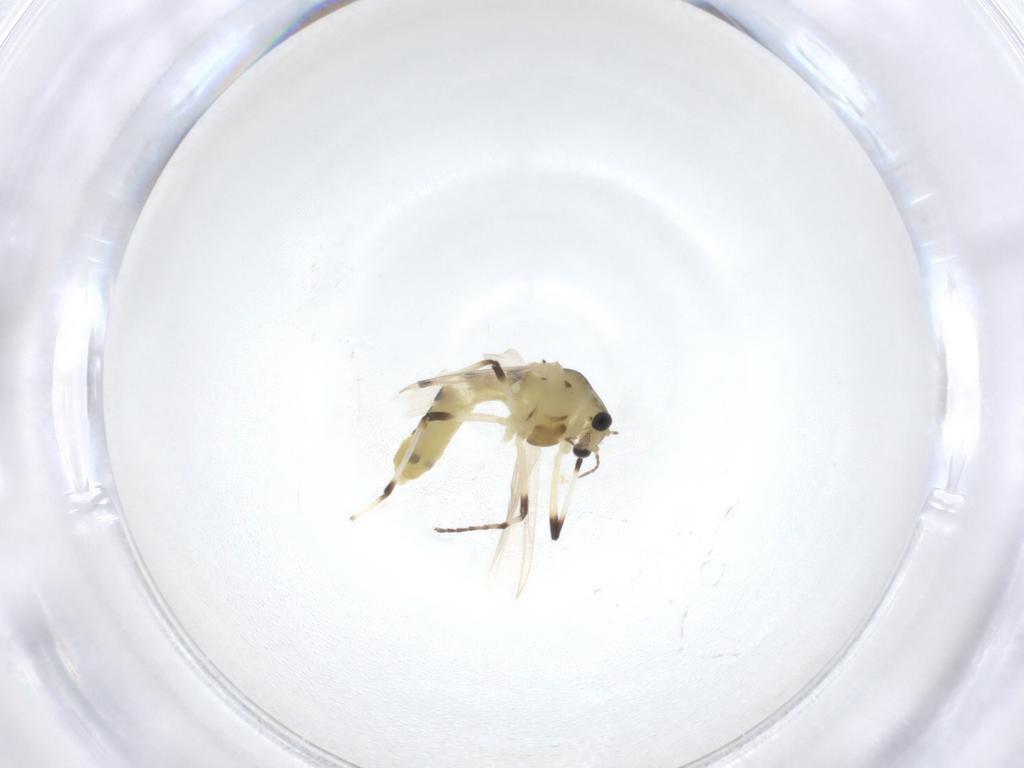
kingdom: Animalia
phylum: Arthropoda
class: Insecta
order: Diptera
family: Chironomidae
